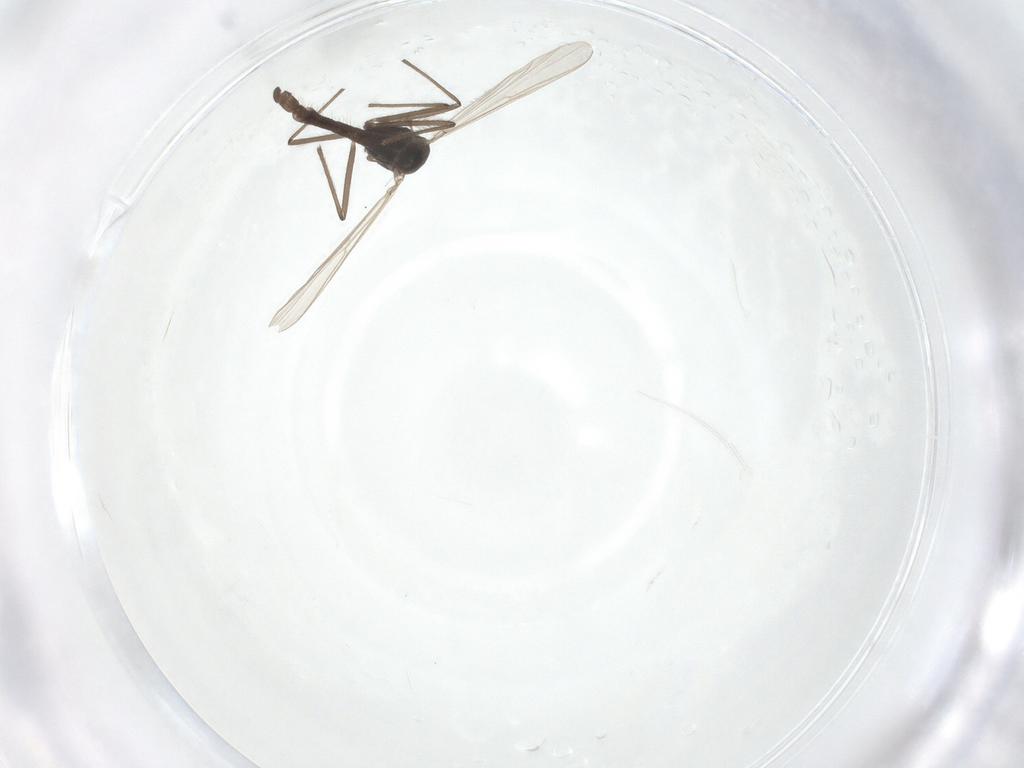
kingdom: Animalia
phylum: Arthropoda
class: Insecta
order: Diptera
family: Chironomidae
